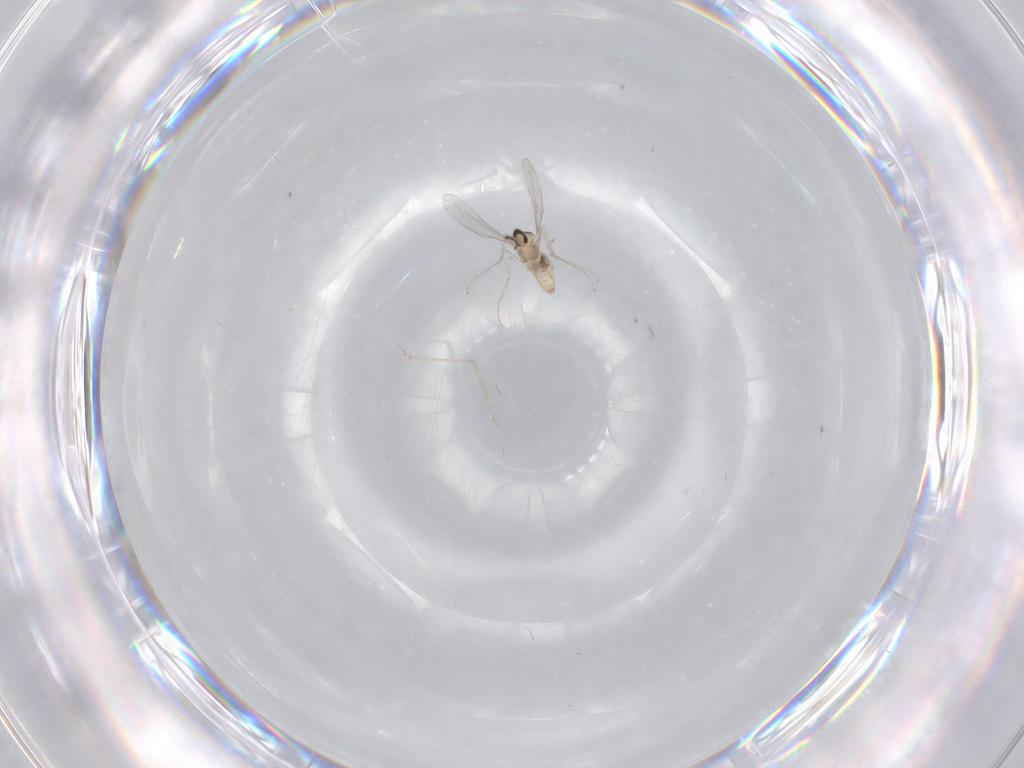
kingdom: Animalia
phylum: Arthropoda
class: Insecta
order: Diptera
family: Cecidomyiidae
